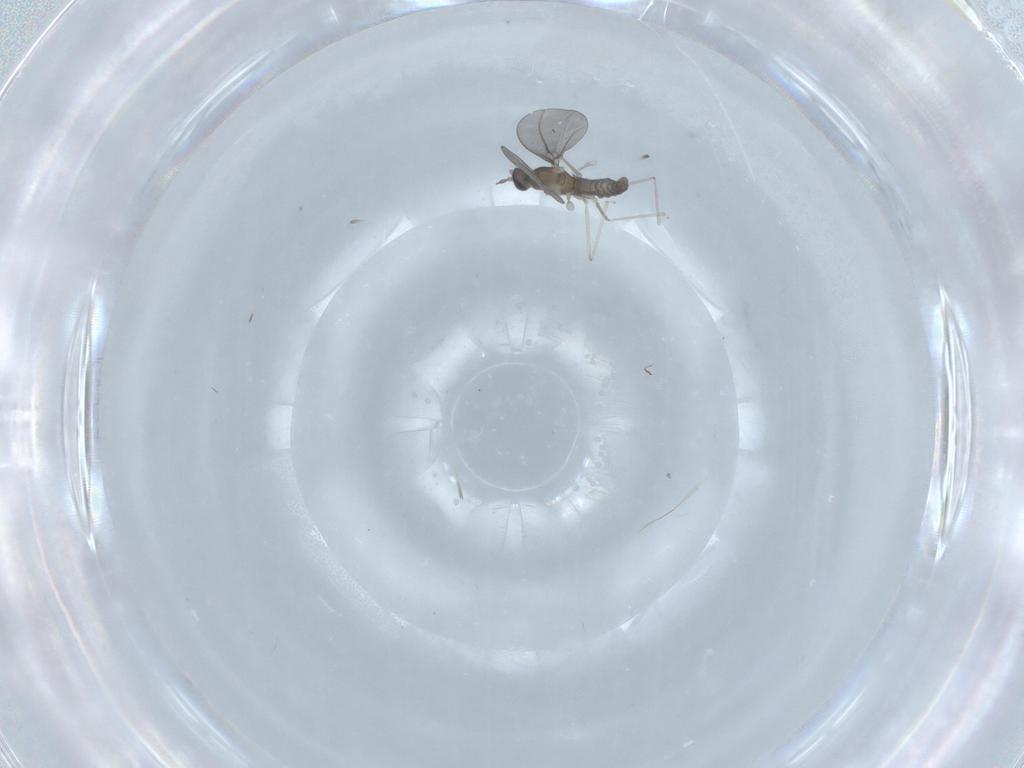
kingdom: Animalia
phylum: Arthropoda
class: Insecta
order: Diptera
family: Cecidomyiidae
